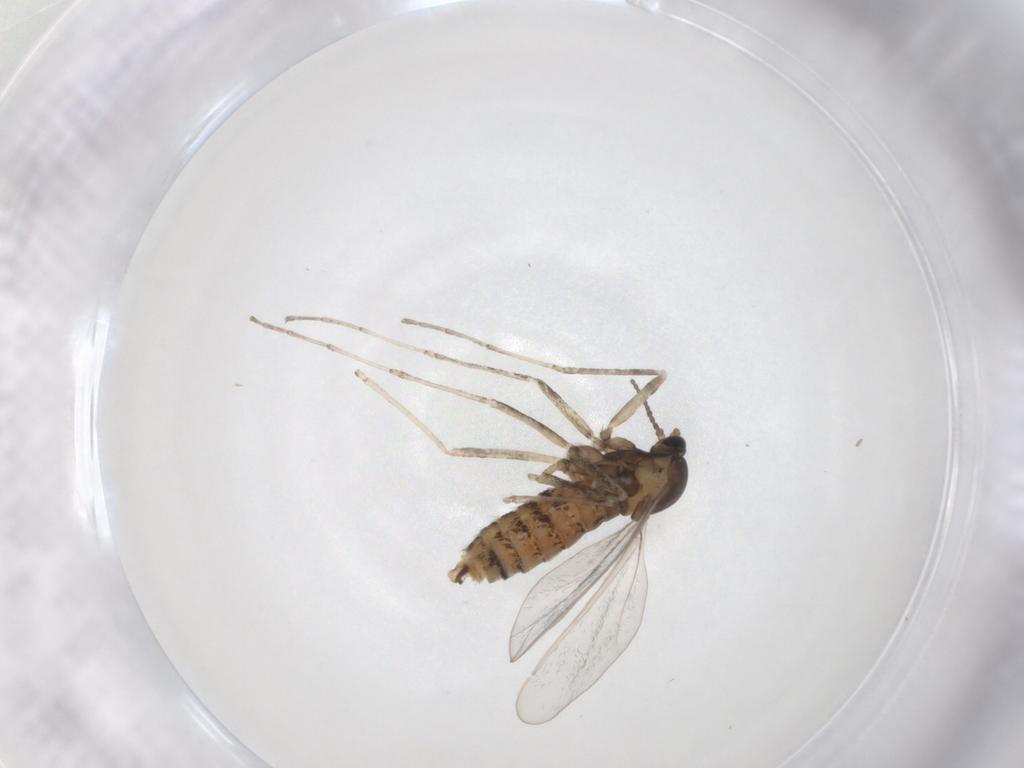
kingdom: Animalia
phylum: Arthropoda
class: Insecta
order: Diptera
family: Cecidomyiidae
